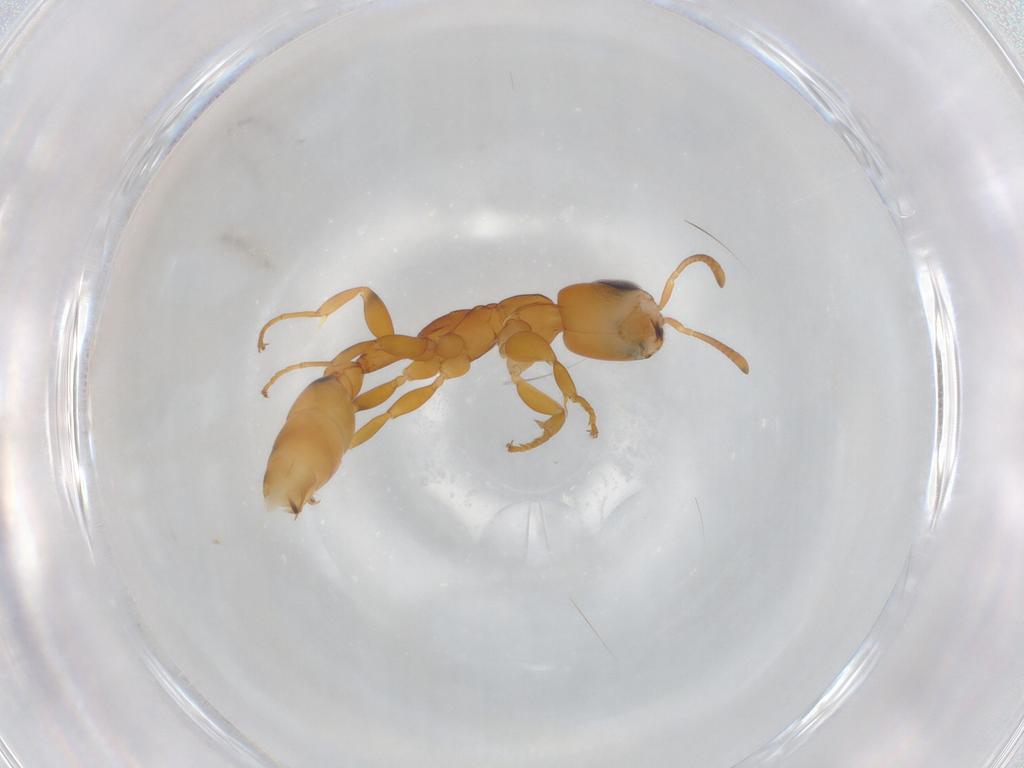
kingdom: Animalia
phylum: Arthropoda
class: Insecta
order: Hymenoptera
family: Formicidae
